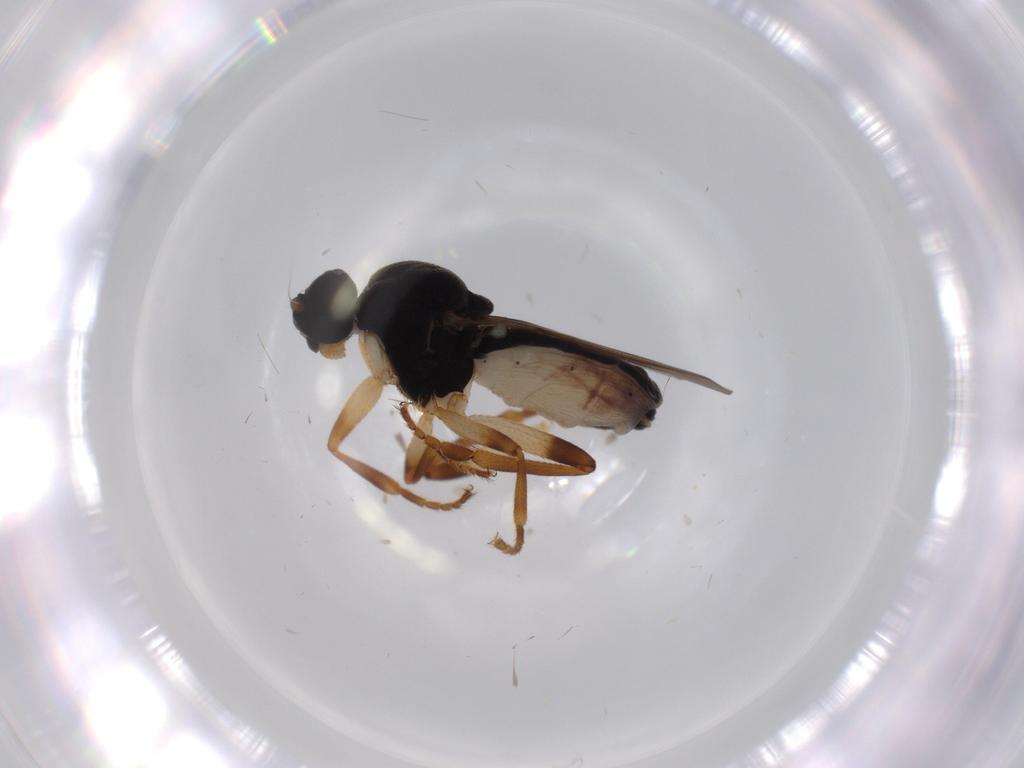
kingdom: Animalia
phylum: Arthropoda
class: Insecta
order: Diptera
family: Sphaeroceridae
